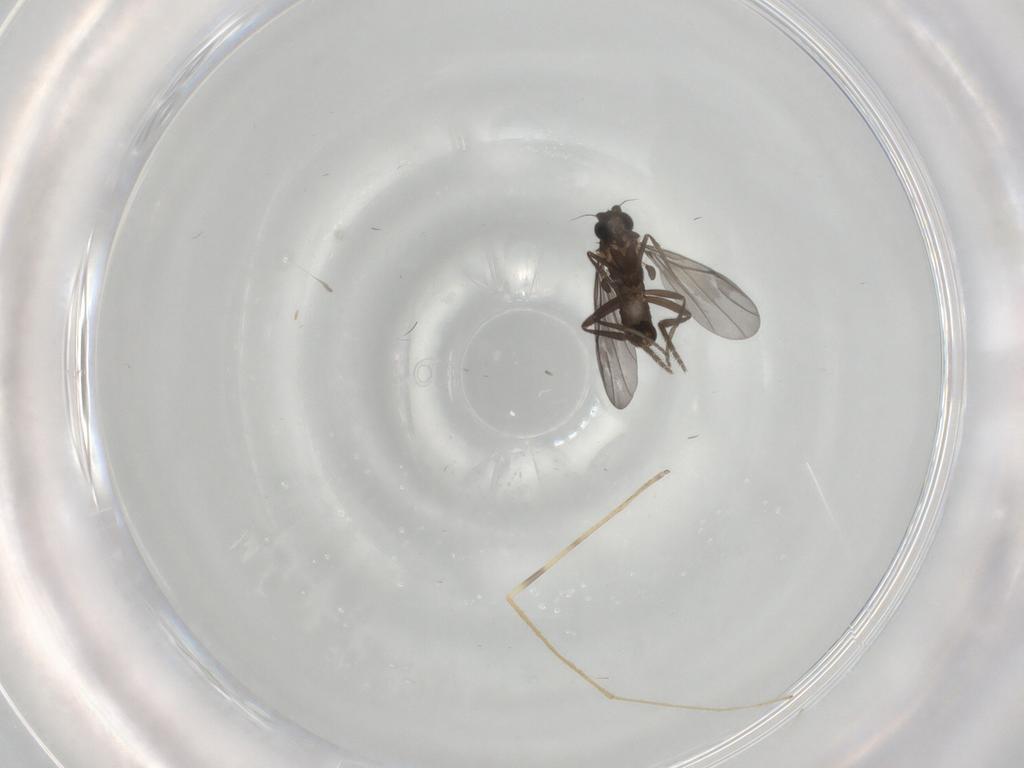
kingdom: Animalia
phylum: Arthropoda
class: Insecta
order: Diptera
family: Phoridae
